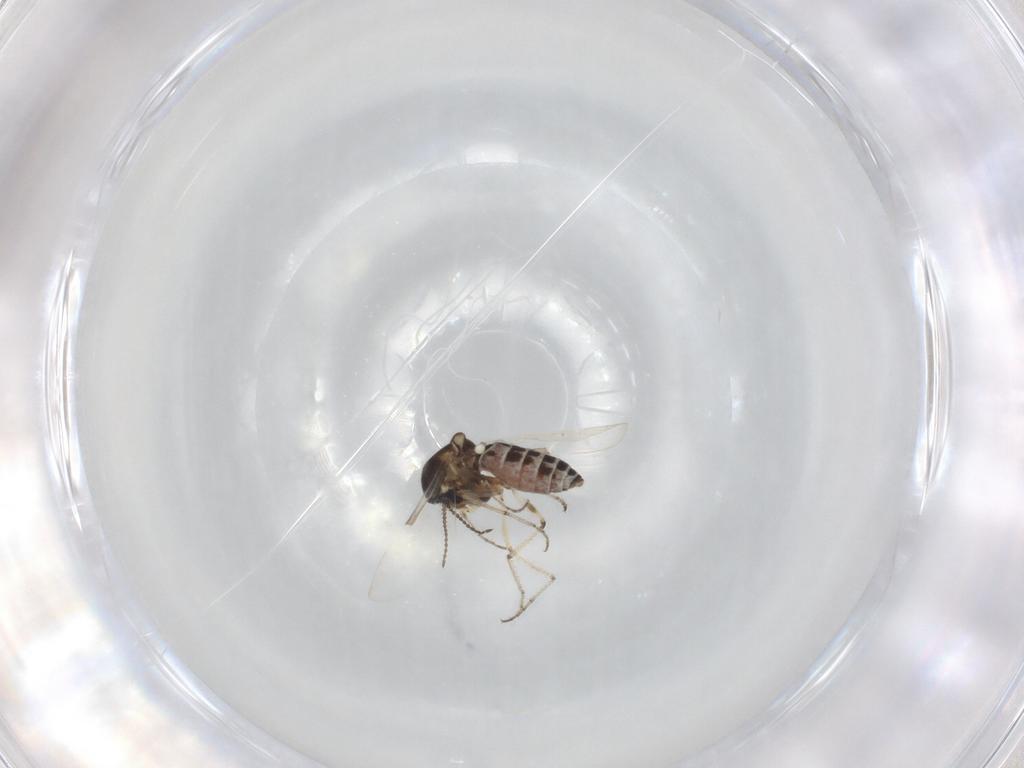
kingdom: Animalia
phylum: Arthropoda
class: Insecta
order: Diptera
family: Ceratopogonidae
